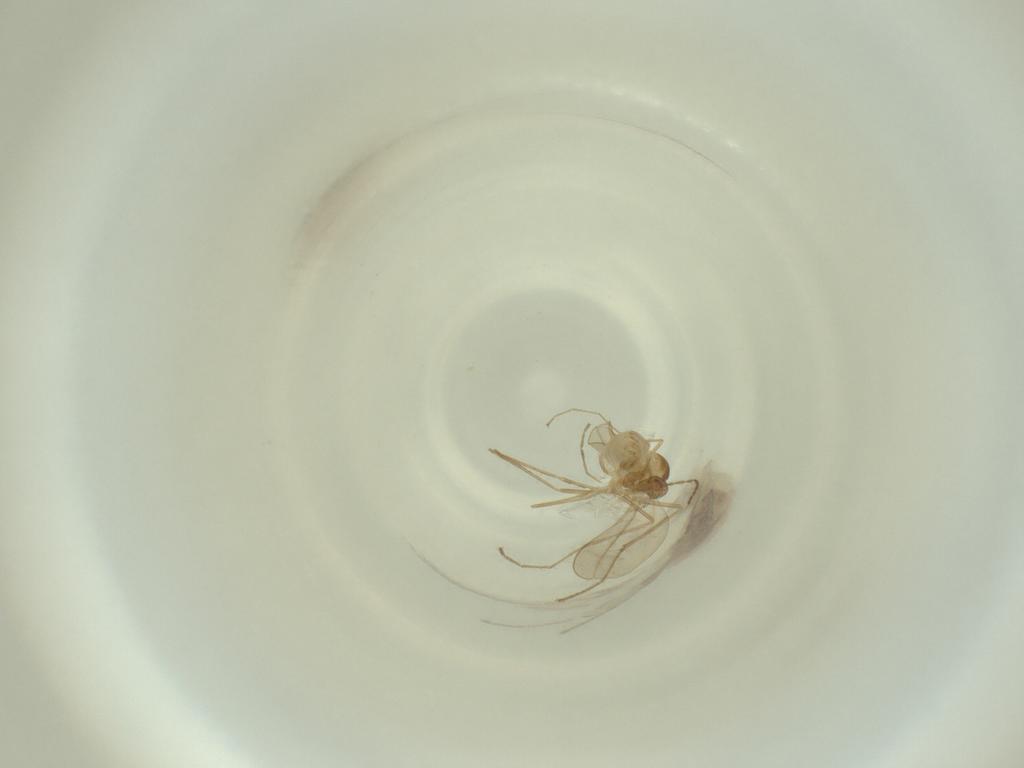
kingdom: Animalia
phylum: Arthropoda
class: Insecta
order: Diptera
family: Cecidomyiidae
